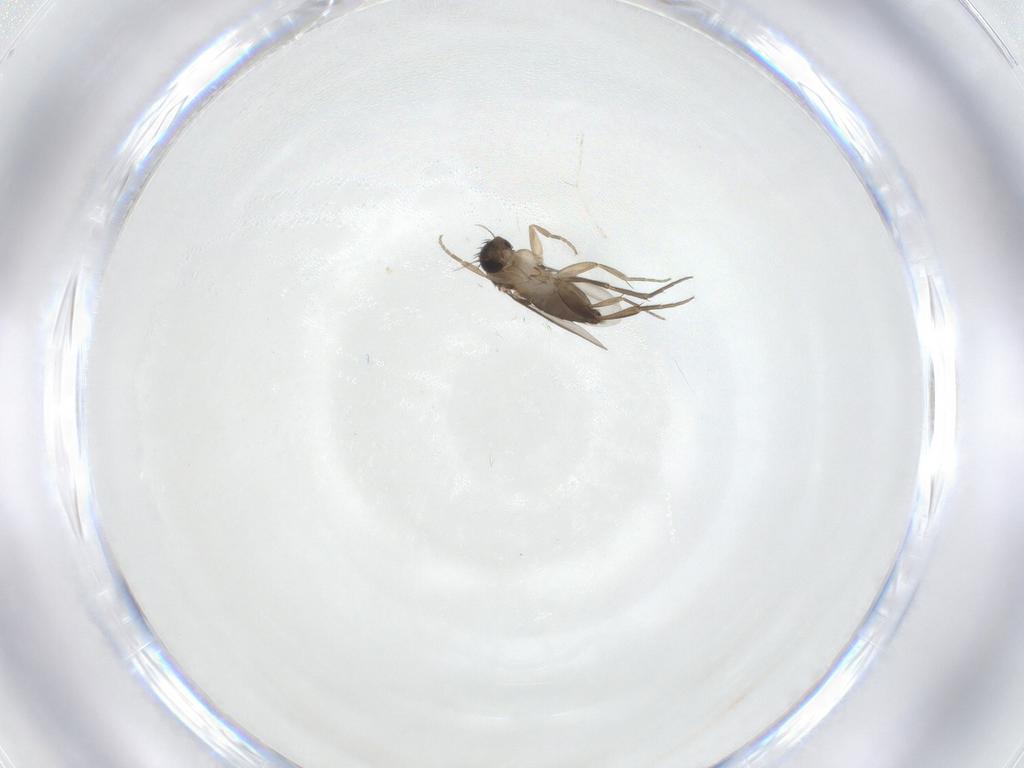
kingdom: Animalia
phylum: Arthropoda
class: Insecta
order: Diptera
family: Phoridae
